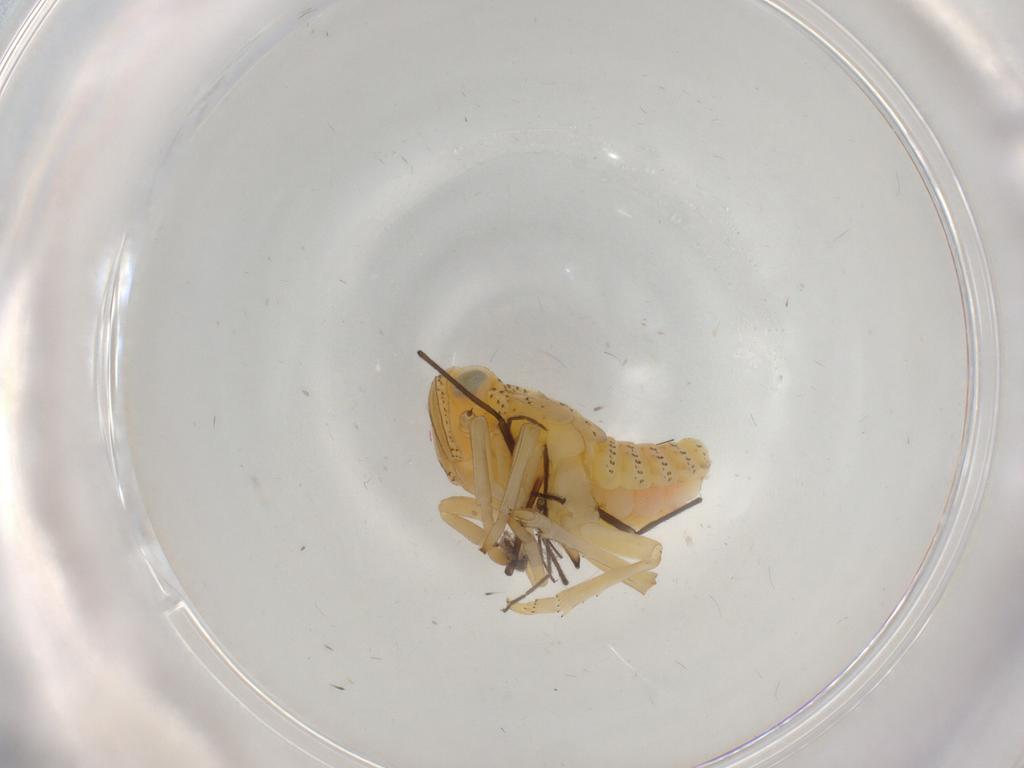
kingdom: Animalia
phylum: Arthropoda
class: Insecta
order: Hemiptera
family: Tropiduchidae
